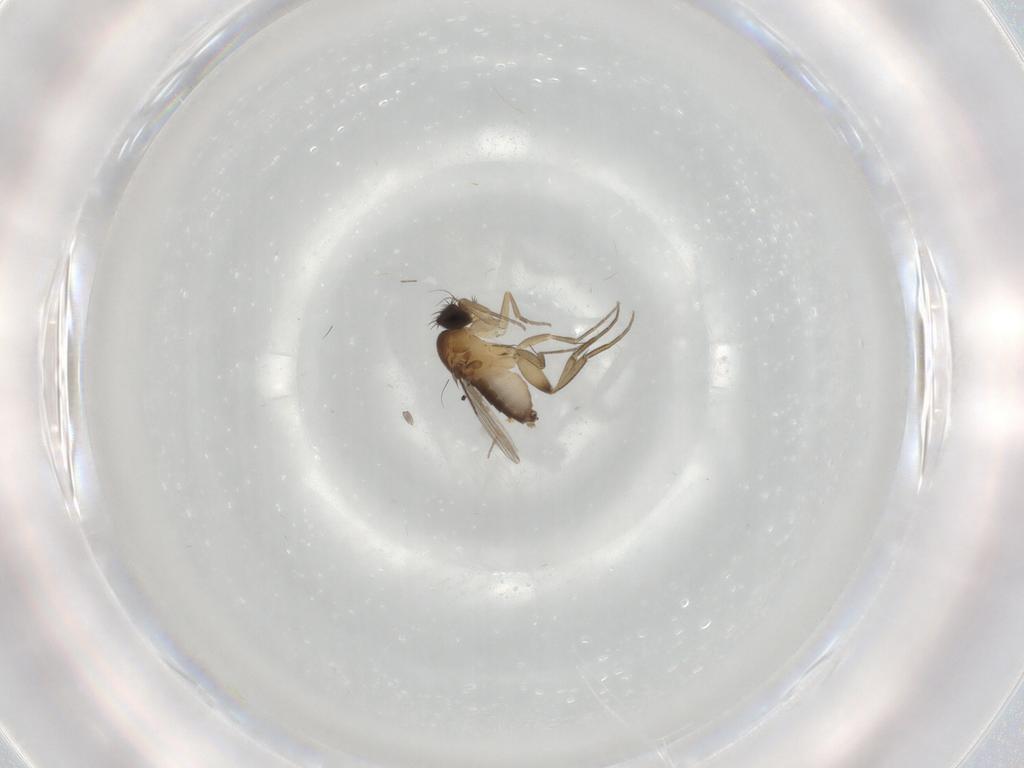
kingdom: Animalia
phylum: Arthropoda
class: Insecta
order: Diptera
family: Phoridae
